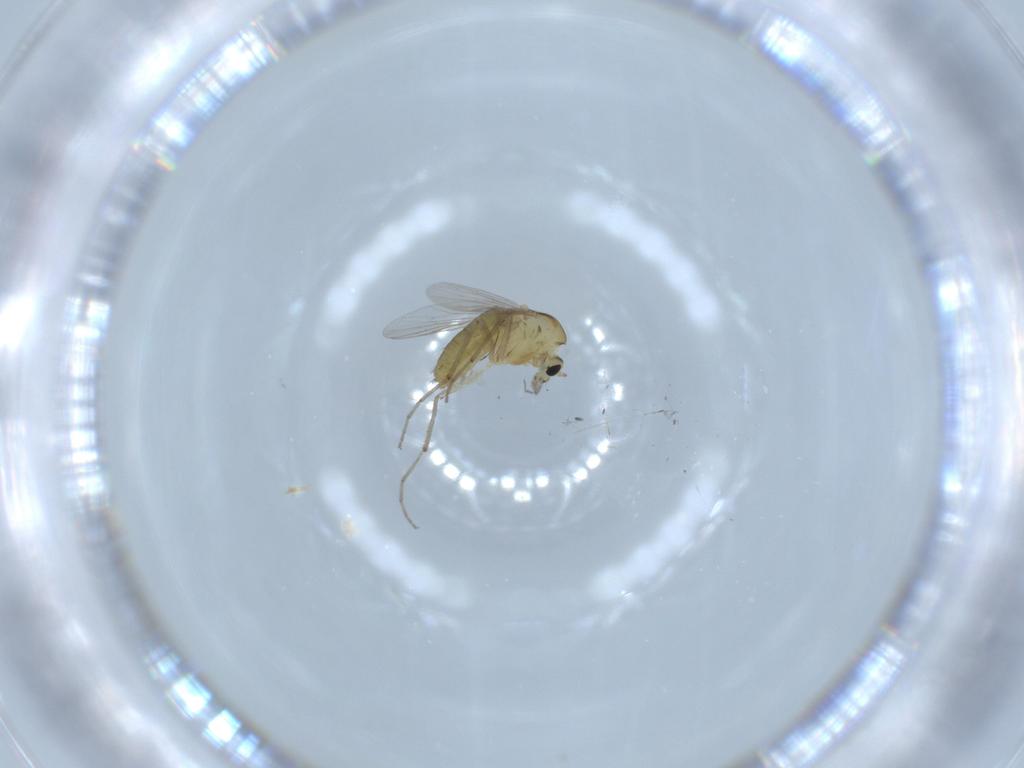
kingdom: Animalia
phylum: Arthropoda
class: Insecta
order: Diptera
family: Chironomidae
